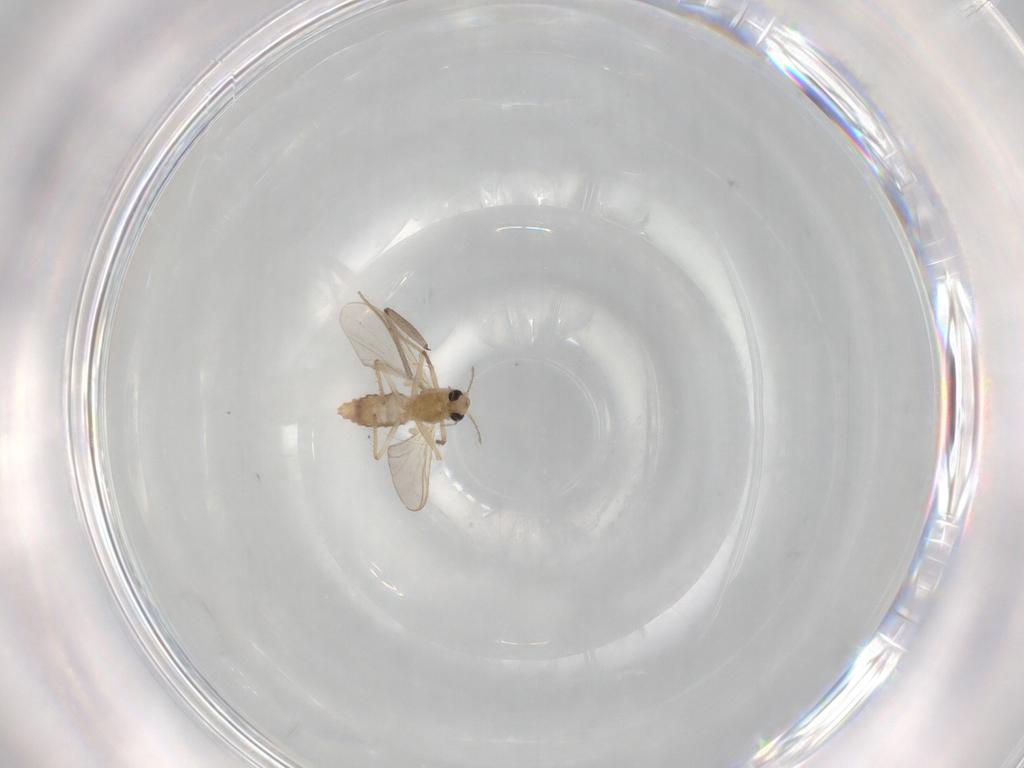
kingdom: Animalia
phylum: Arthropoda
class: Insecta
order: Diptera
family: Chironomidae
